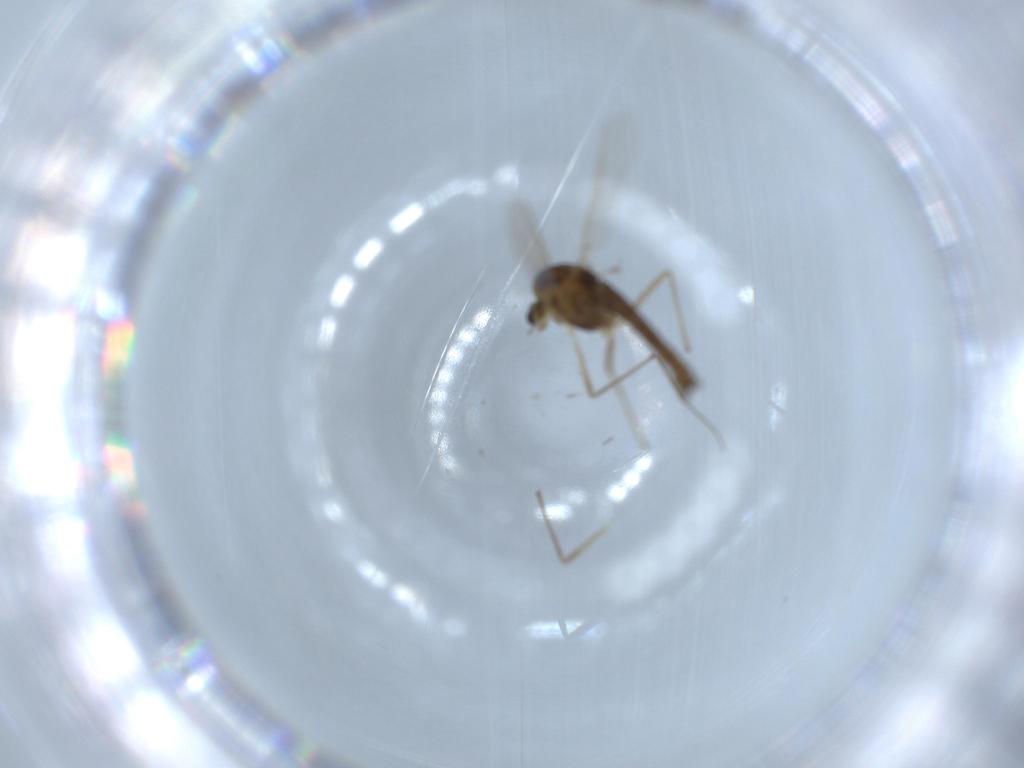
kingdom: Animalia
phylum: Arthropoda
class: Insecta
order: Diptera
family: Chironomidae
